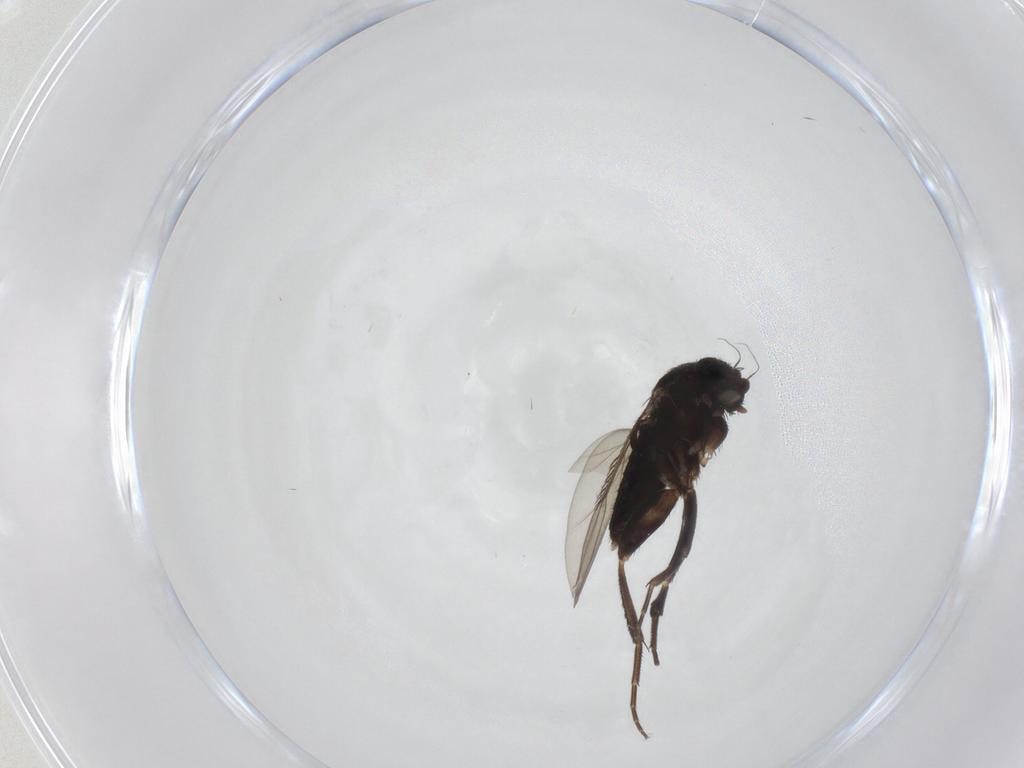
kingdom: Animalia
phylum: Arthropoda
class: Insecta
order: Diptera
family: Phoridae
